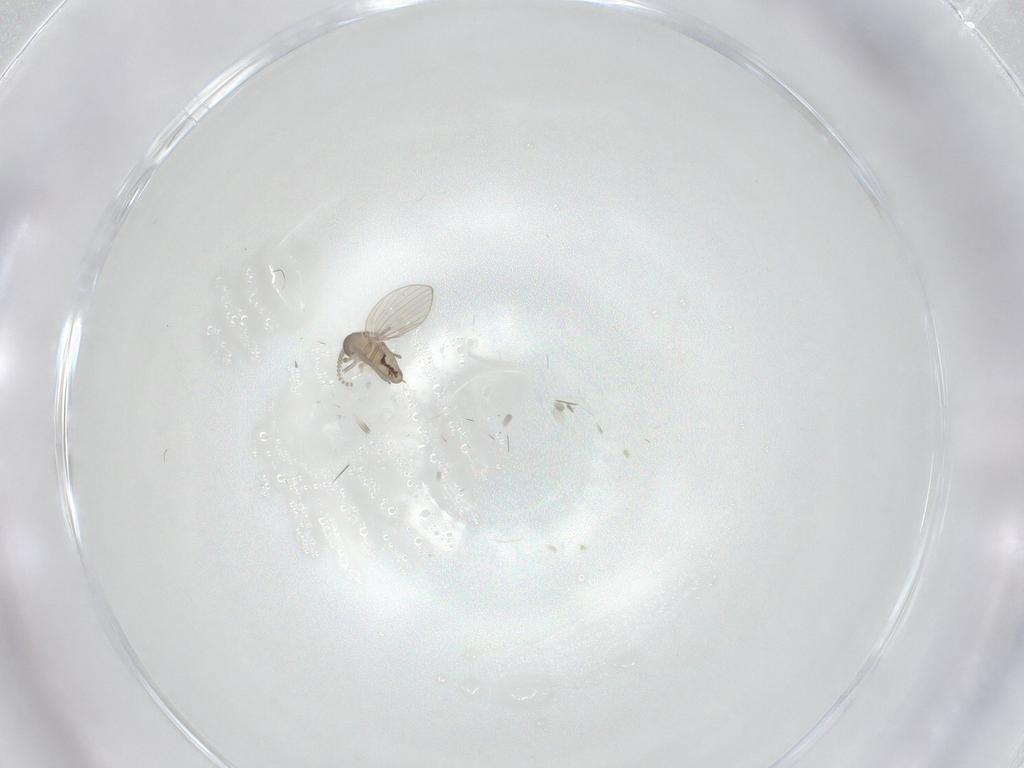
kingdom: Animalia
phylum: Arthropoda
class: Insecta
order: Diptera
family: Psychodidae
